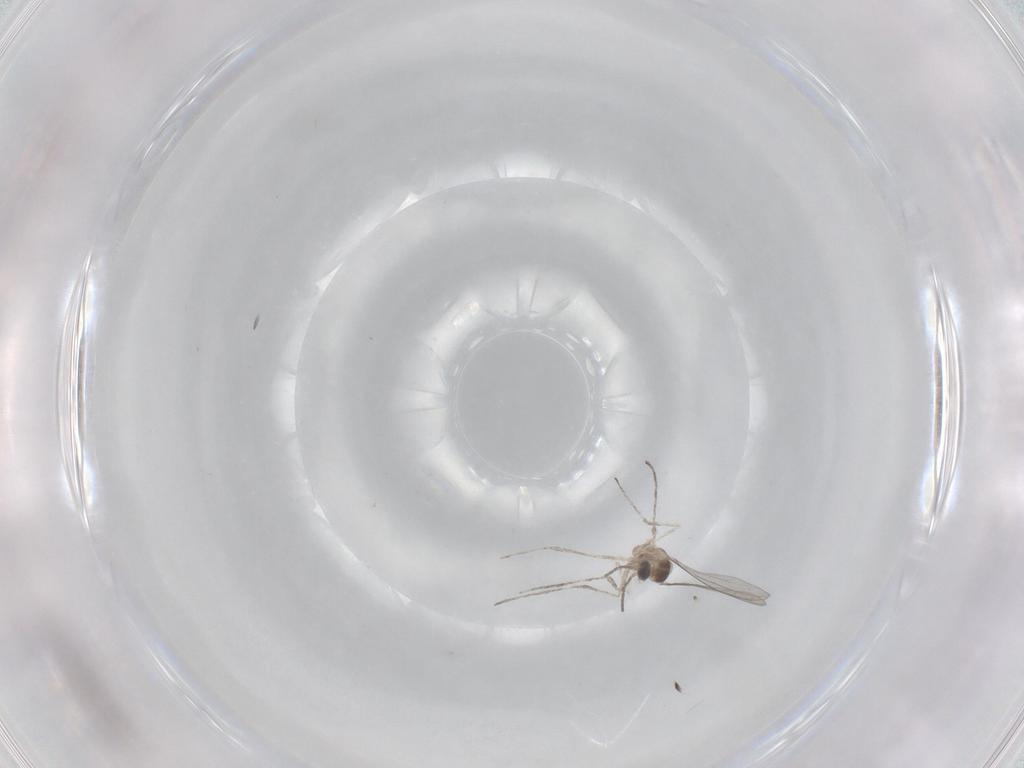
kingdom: Animalia
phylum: Arthropoda
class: Insecta
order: Diptera
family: Cecidomyiidae
